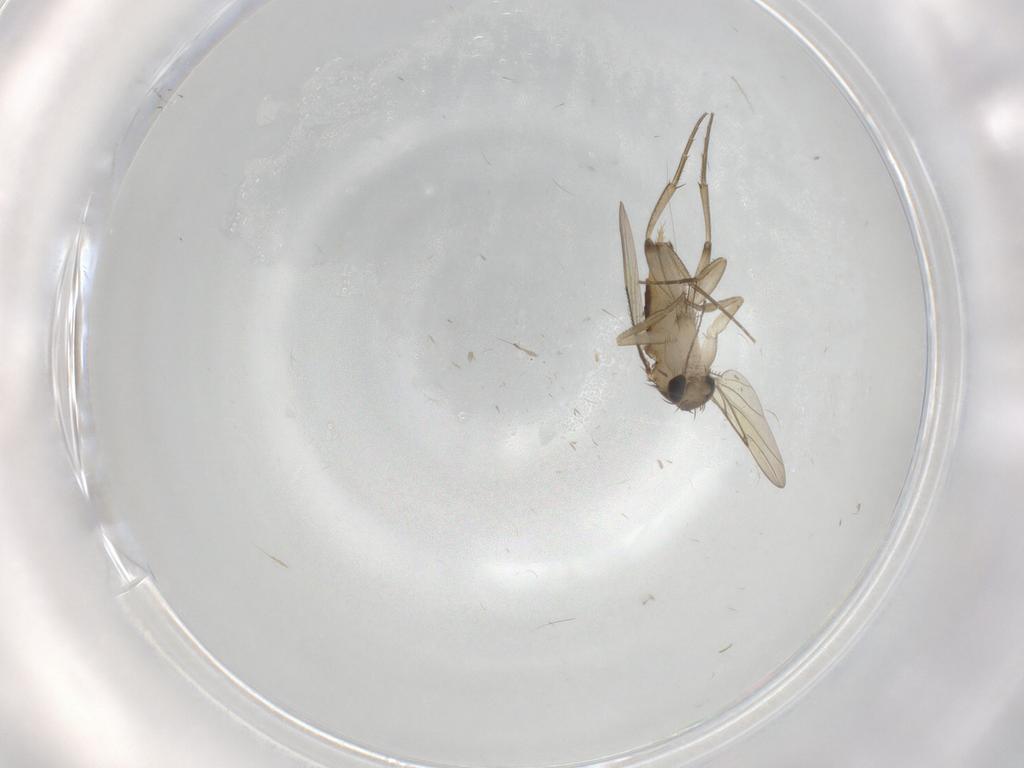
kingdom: Animalia
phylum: Arthropoda
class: Insecta
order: Diptera
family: Phoridae
